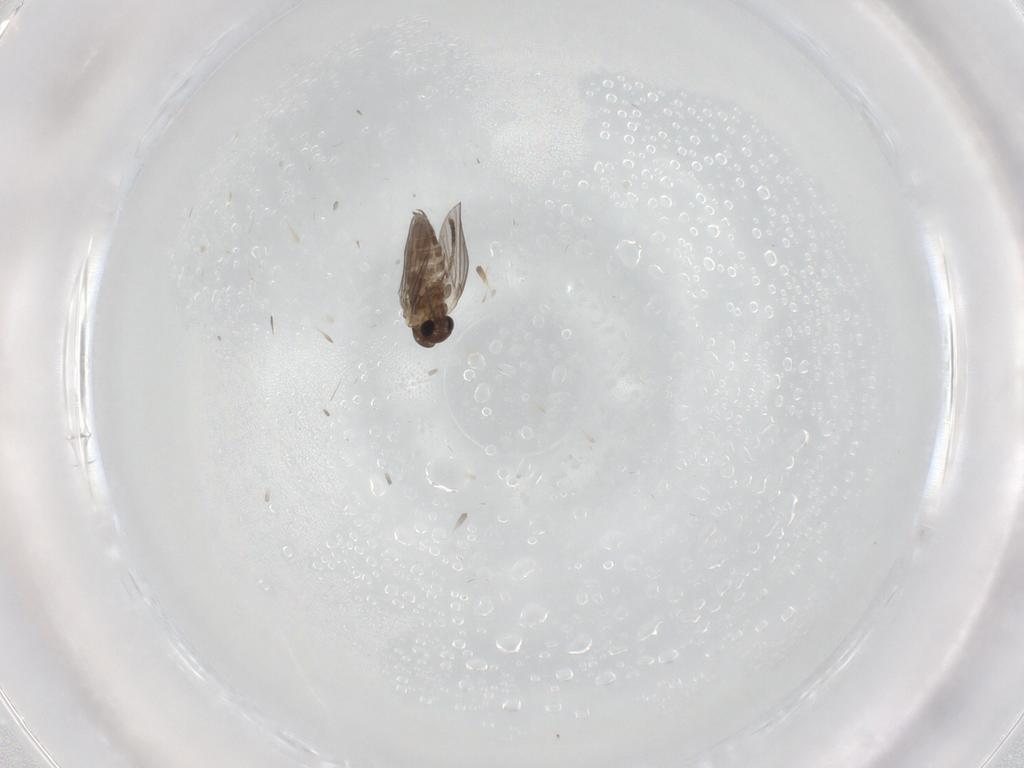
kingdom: Animalia
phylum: Arthropoda
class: Insecta
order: Diptera
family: Psychodidae
